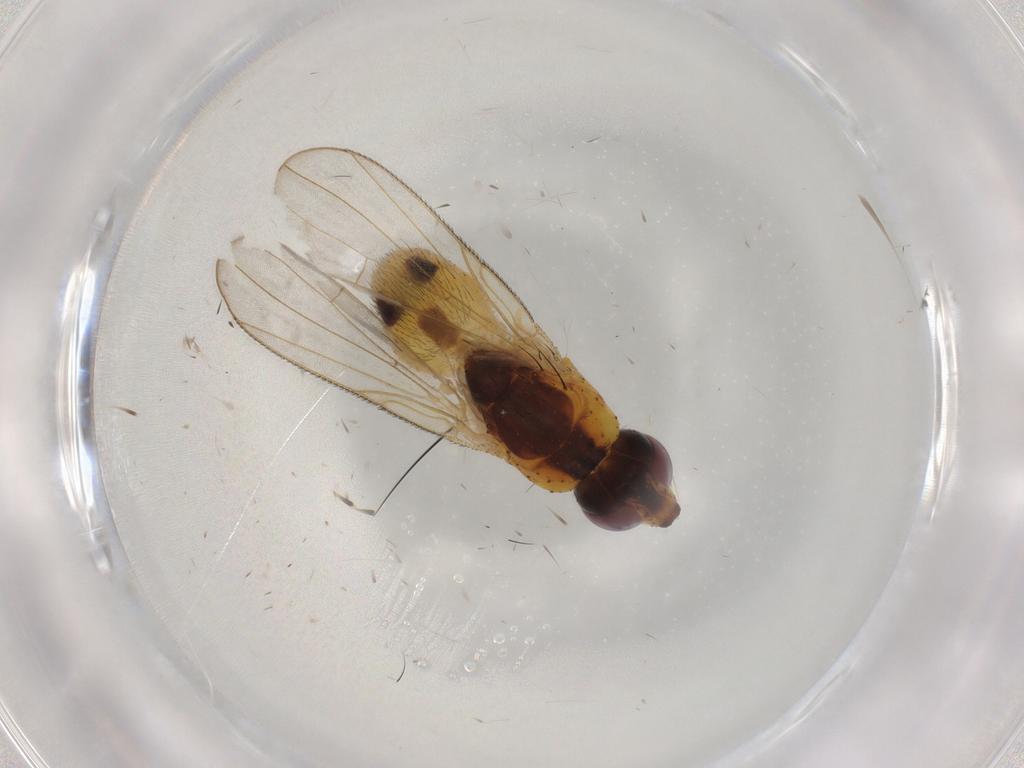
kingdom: Animalia
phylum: Arthropoda
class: Insecta
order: Diptera
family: Muscidae
